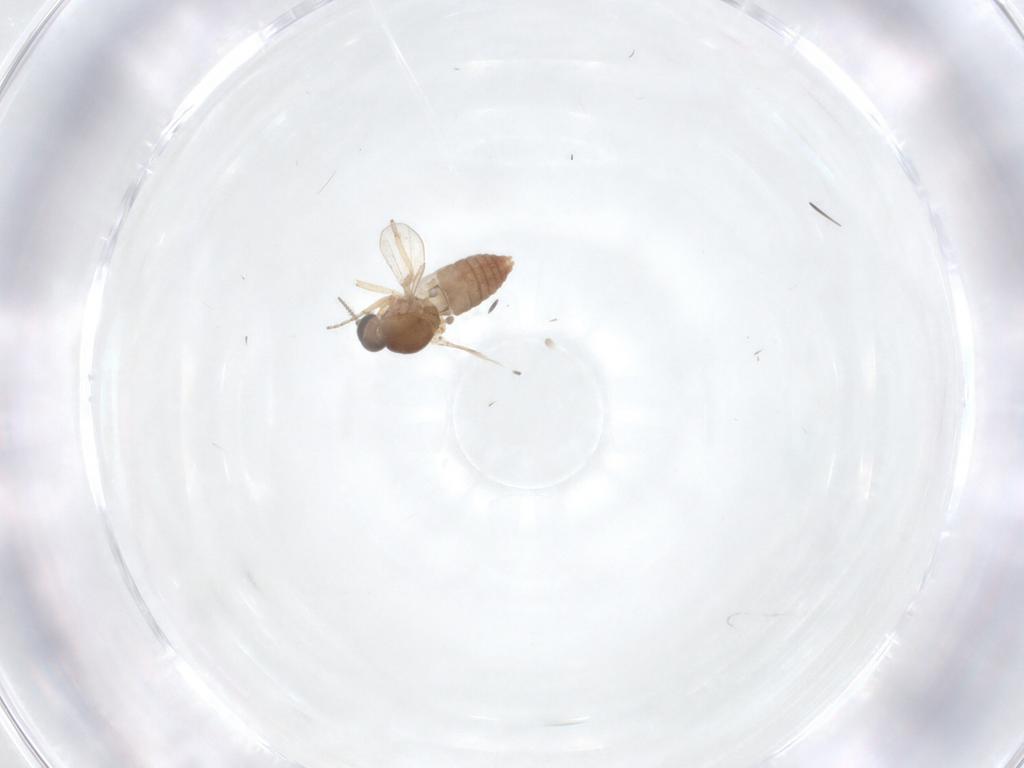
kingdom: Animalia
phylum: Arthropoda
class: Insecta
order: Diptera
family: Ceratopogonidae
